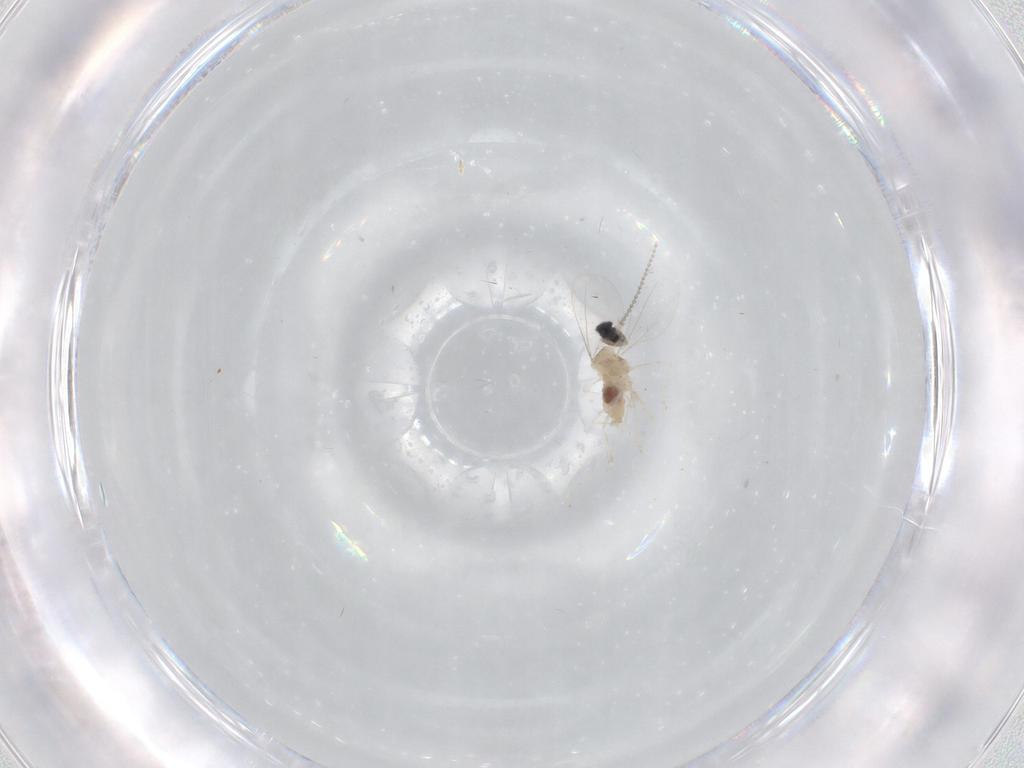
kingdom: Animalia
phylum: Arthropoda
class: Insecta
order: Diptera
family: Cecidomyiidae
